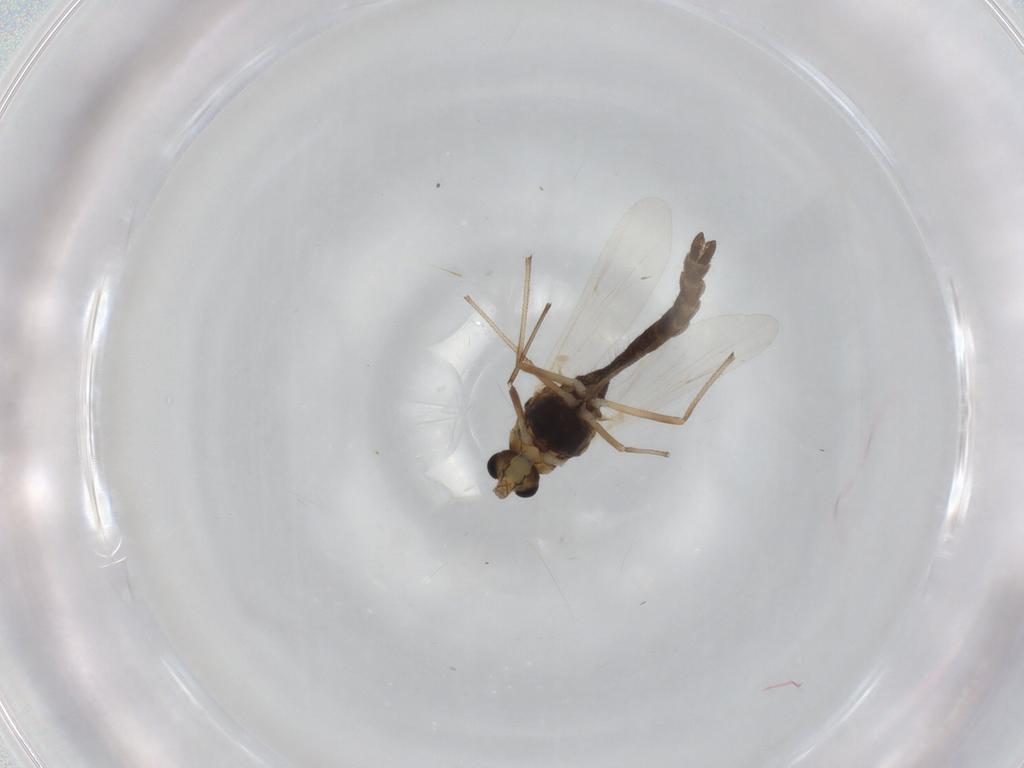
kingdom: Animalia
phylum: Arthropoda
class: Insecta
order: Diptera
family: Chironomidae
